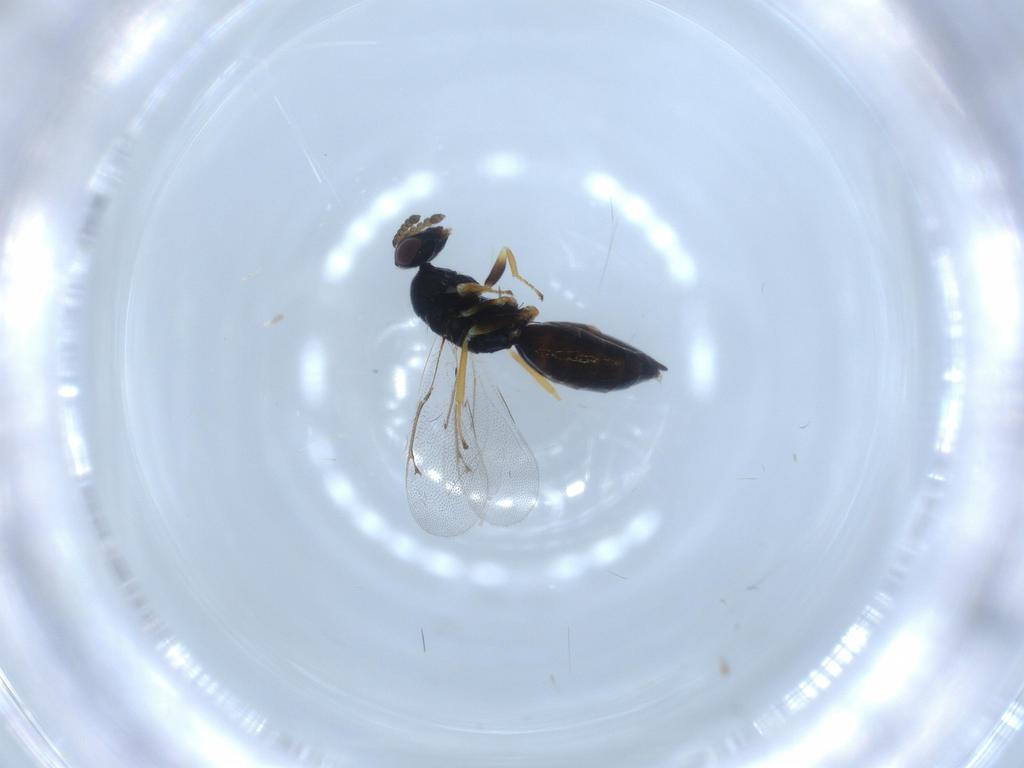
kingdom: Animalia
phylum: Arthropoda
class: Insecta
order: Hymenoptera
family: Eulophidae
